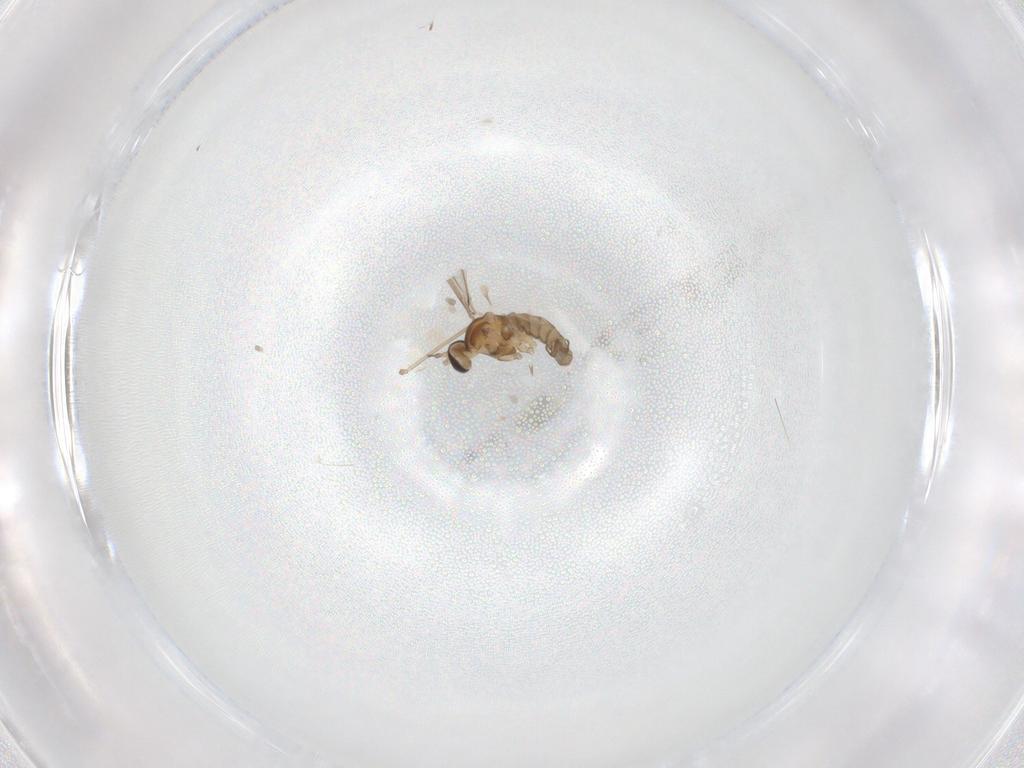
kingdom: Animalia
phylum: Arthropoda
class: Insecta
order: Diptera
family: Cecidomyiidae
